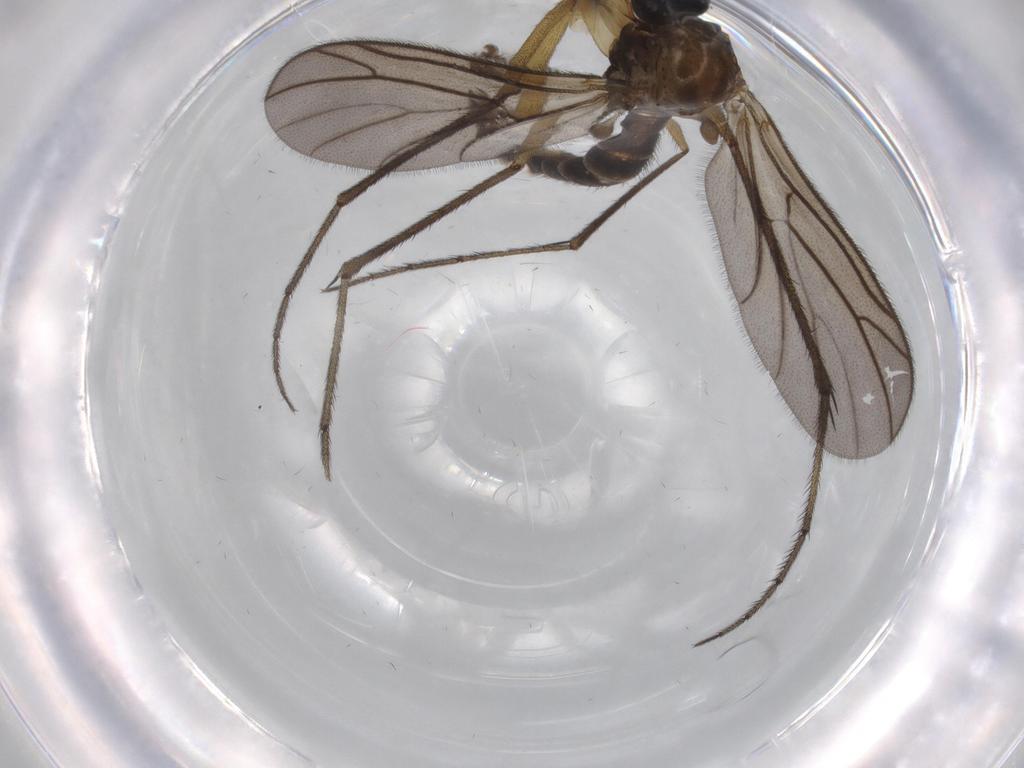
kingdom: Animalia
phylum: Arthropoda
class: Insecta
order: Diptera
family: Ditomyiidae
